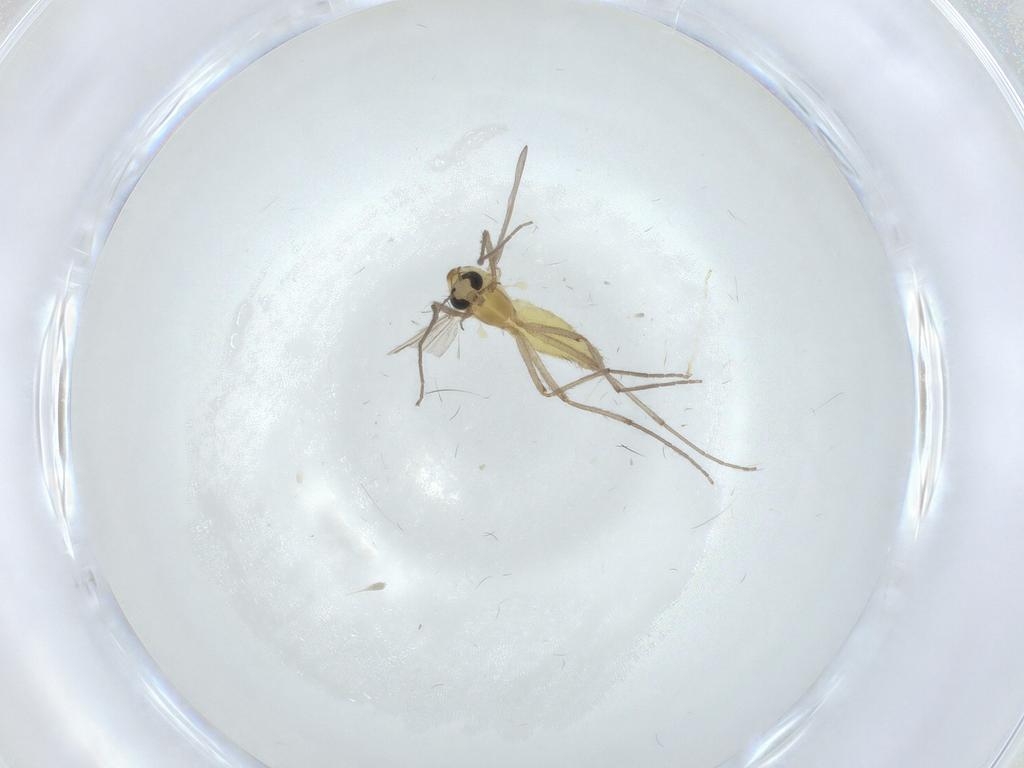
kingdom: Animalia
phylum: Arthropoda
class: Insecta
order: Diptera
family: Chironomidae
